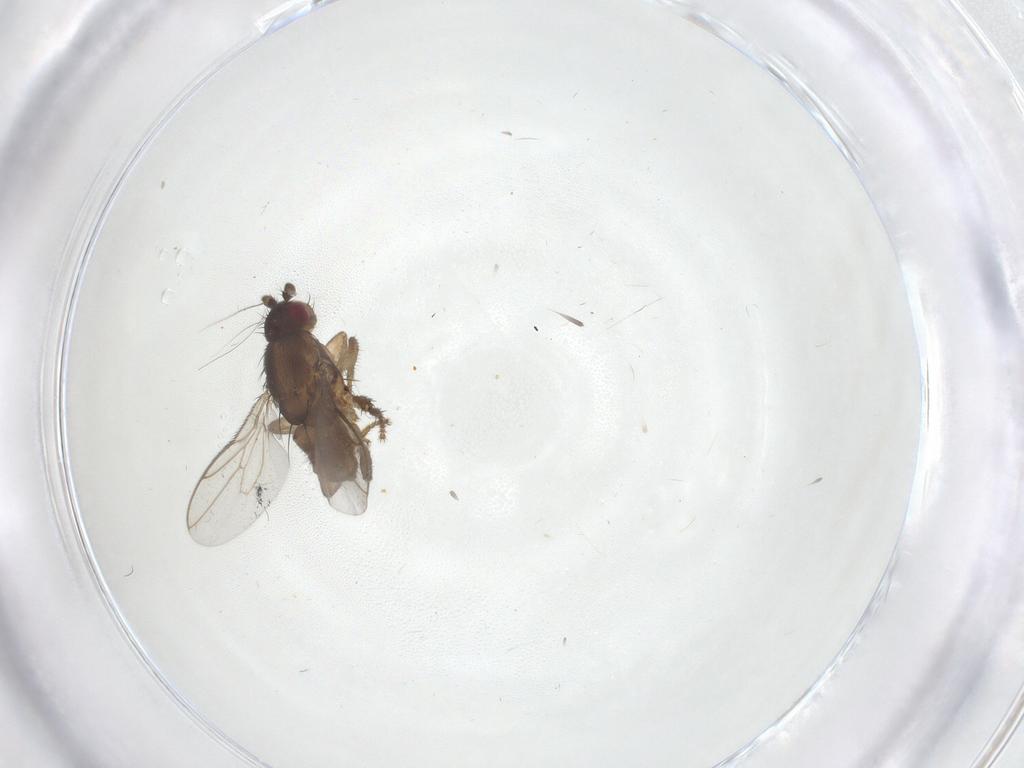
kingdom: Animalia
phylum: Arthropoda
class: Insecta
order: Diptera
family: Sphaeroceridae
